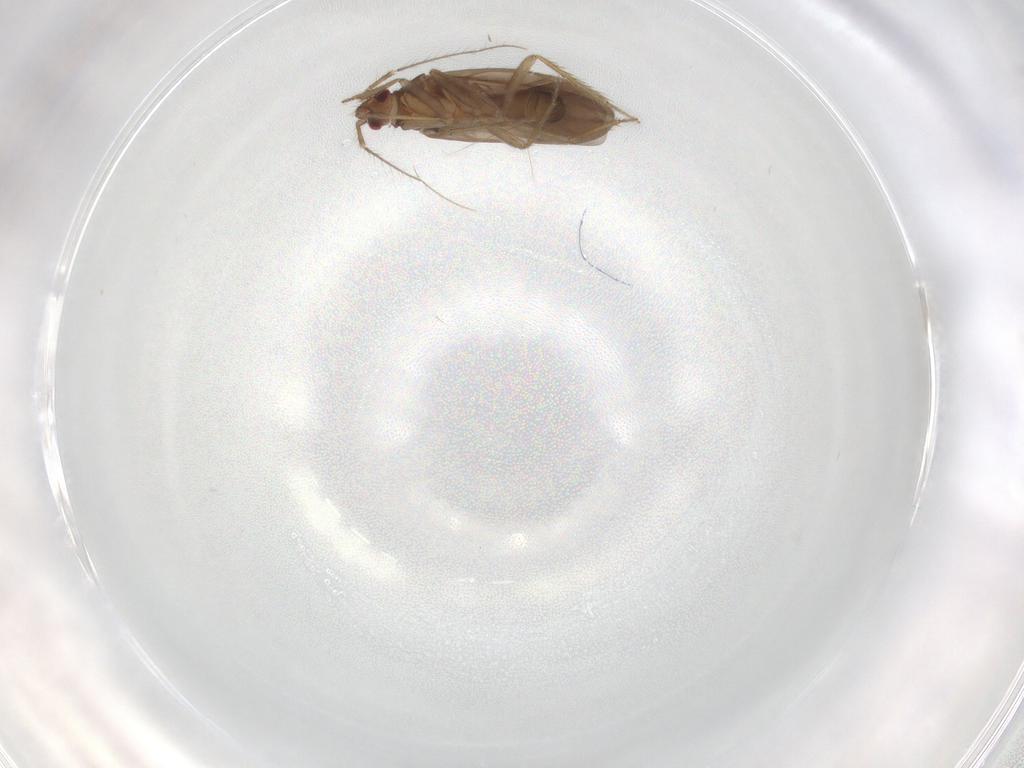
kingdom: Animalia
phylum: Arthropoda
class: Insecta
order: Hemiptera
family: Ceratocombidae
